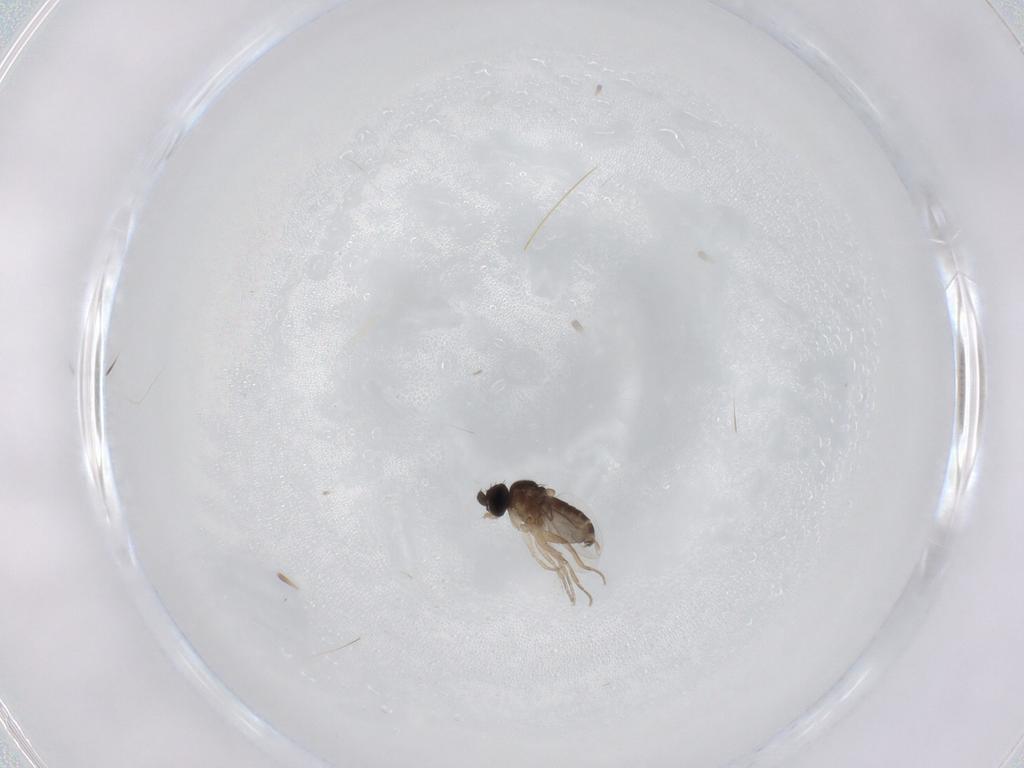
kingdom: Animalia
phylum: Arthropoda
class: Insecta
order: Diptera
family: Phoridae
